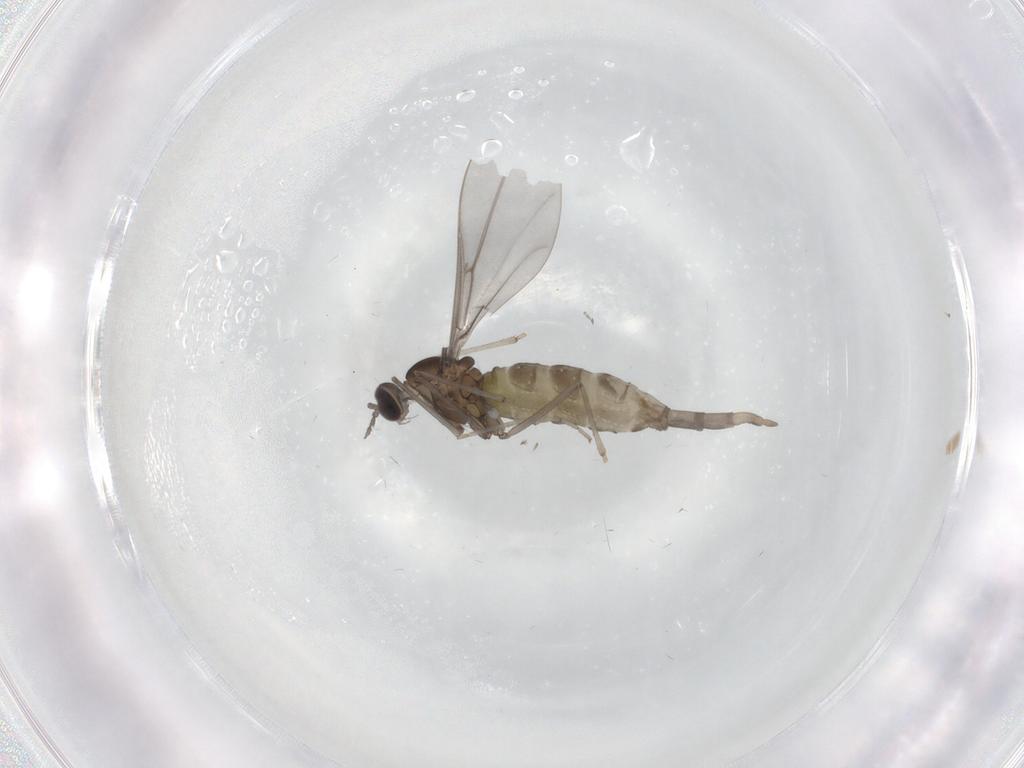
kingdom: Animalia
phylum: Arthropoda
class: Insecta
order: Diptera
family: Cecidomyiidae
